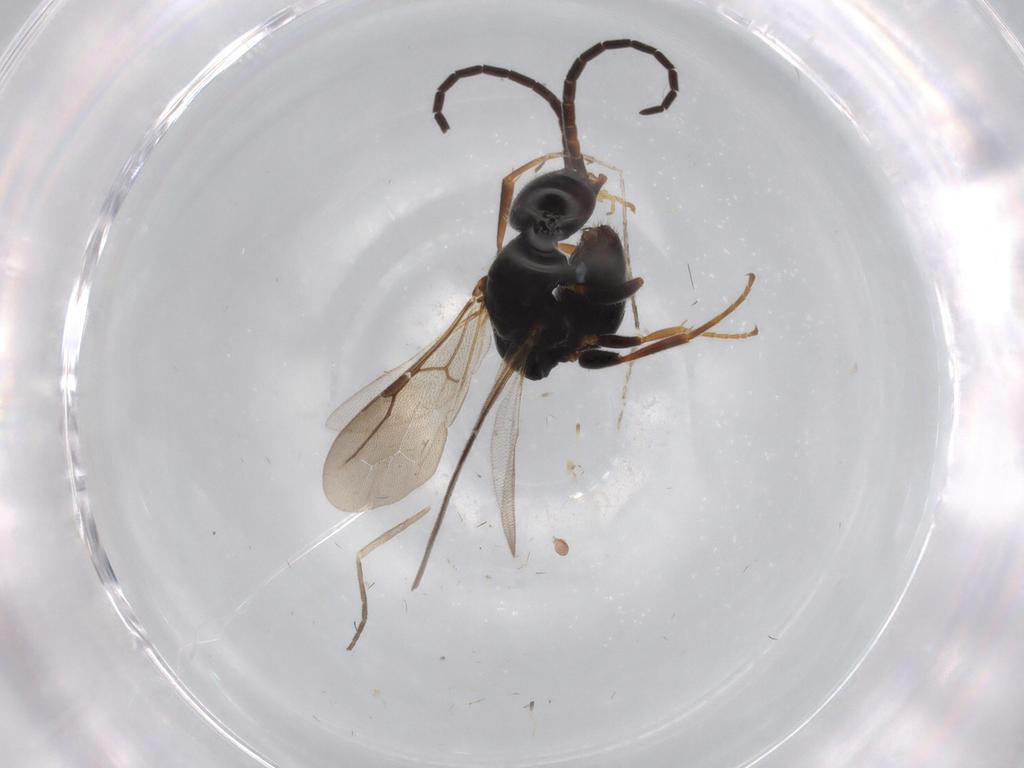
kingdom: Animalia
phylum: Arthropoda
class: Insecta
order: Hymenoptera
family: Bethylidae
